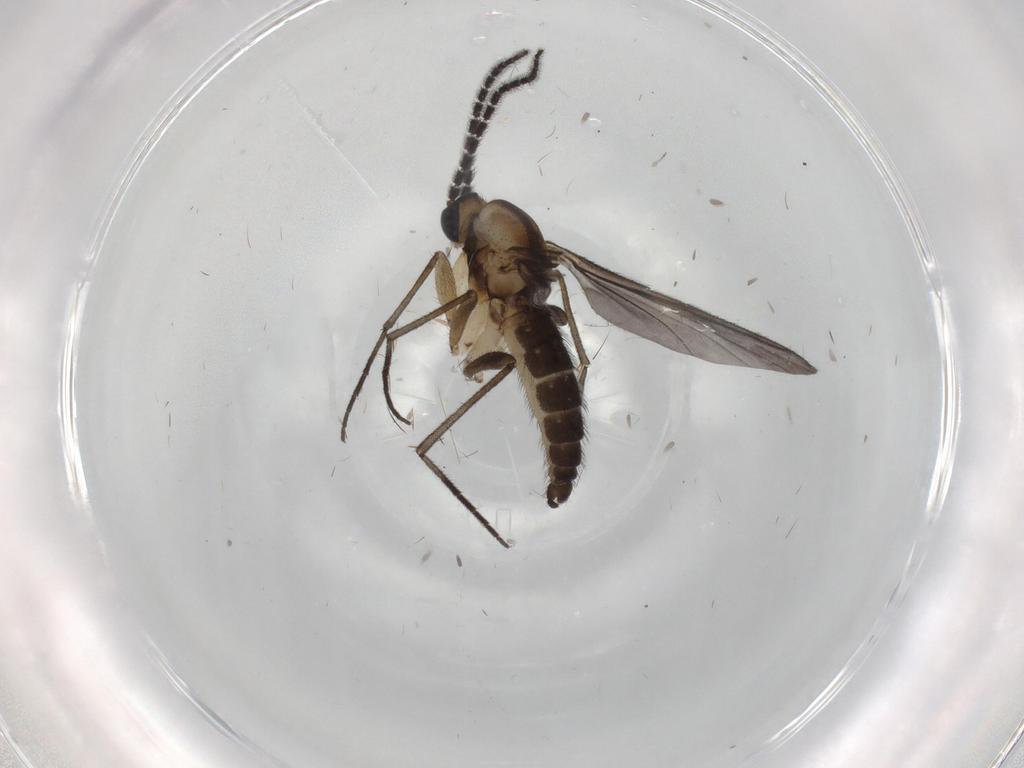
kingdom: Animalia
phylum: Arthropoda
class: Insecta
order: Diptera
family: Sciaridae
